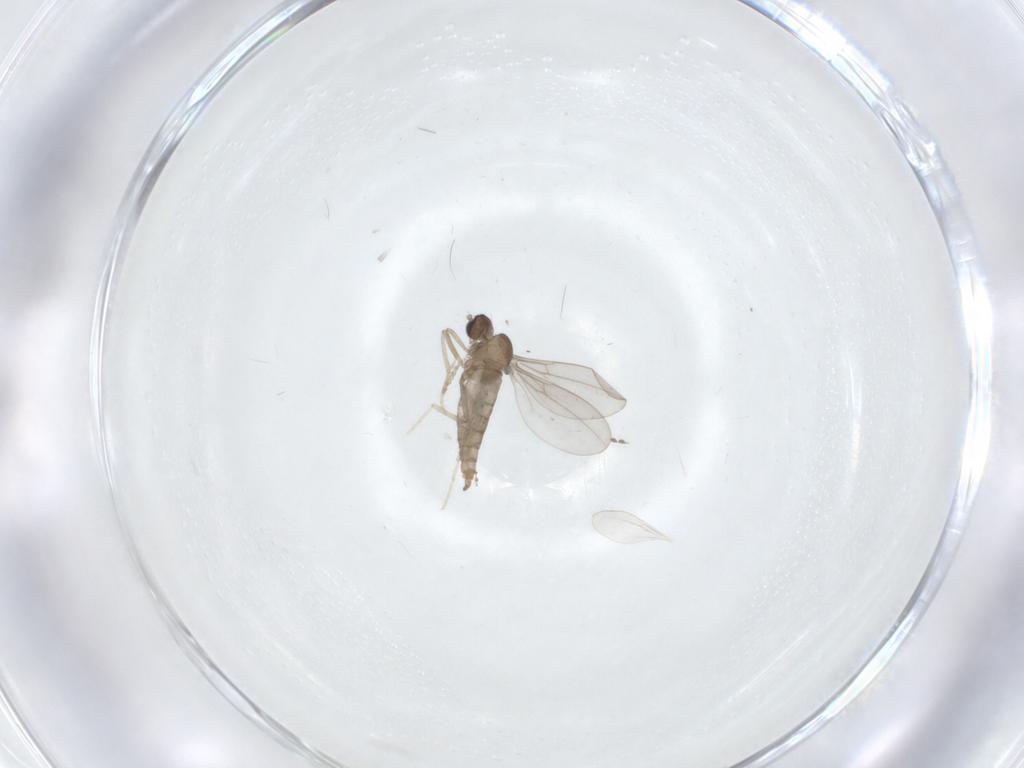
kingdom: Animalia
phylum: Arthropoda
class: Insecta
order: Diptera
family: Cecidomyiidae
